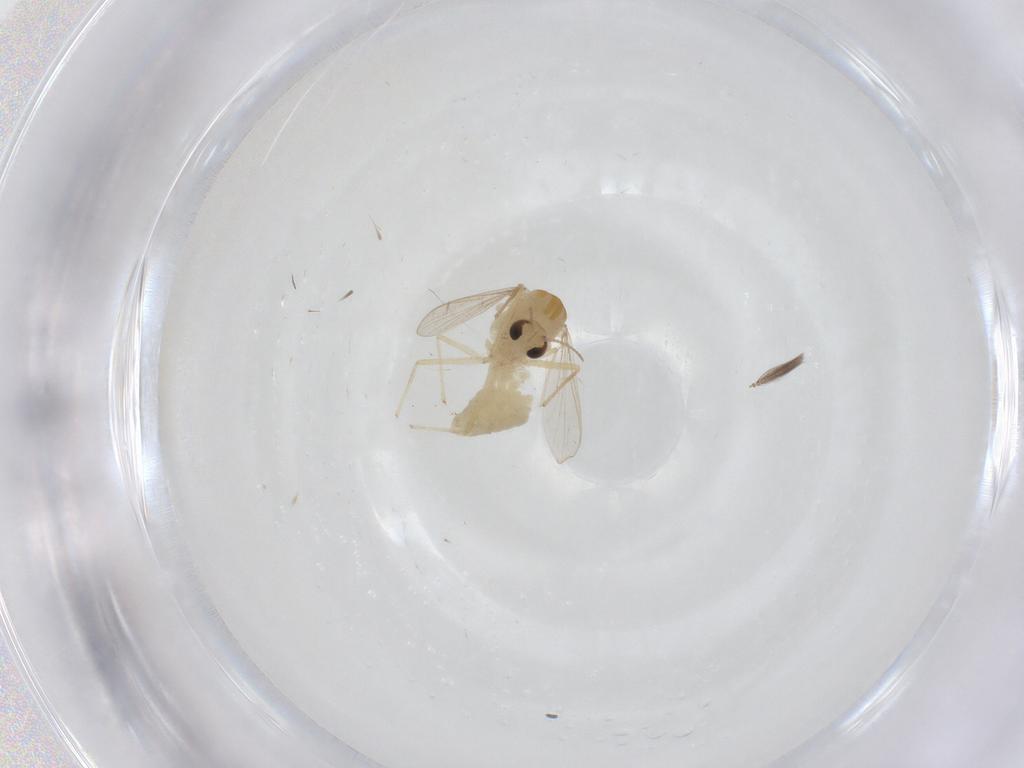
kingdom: Animalia
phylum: Arthropoda
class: Insecta
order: Diptera
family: Chironomidae
